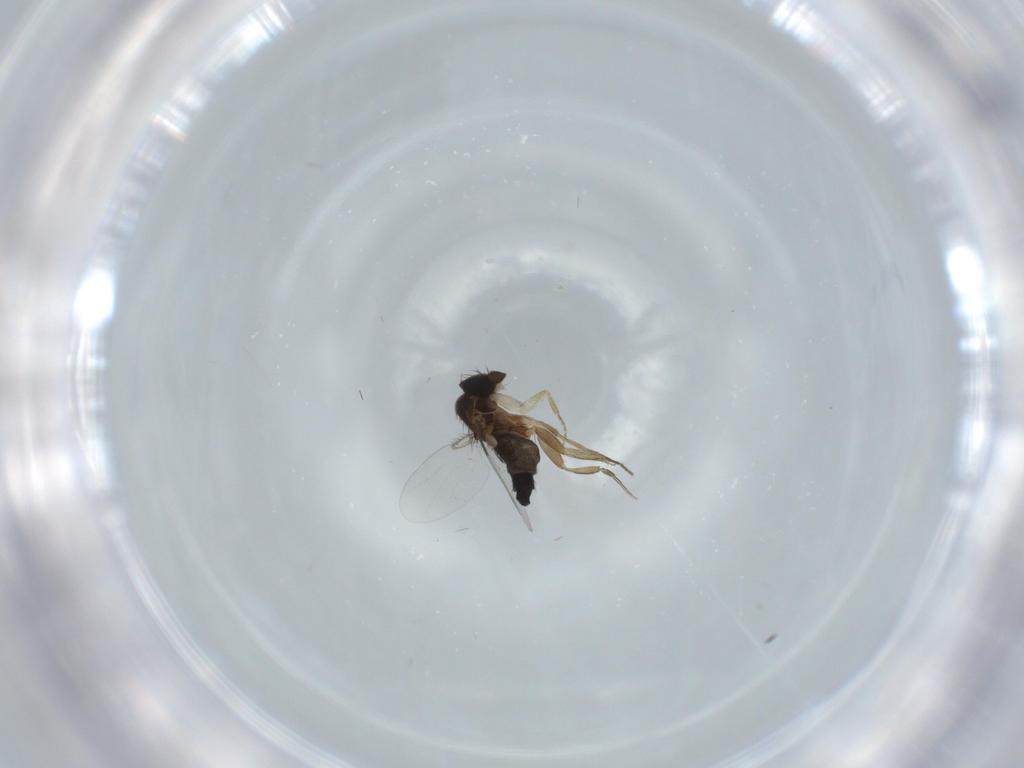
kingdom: Animalia
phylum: Arthropoda
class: Insecta
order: Diptera
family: Phoridae
